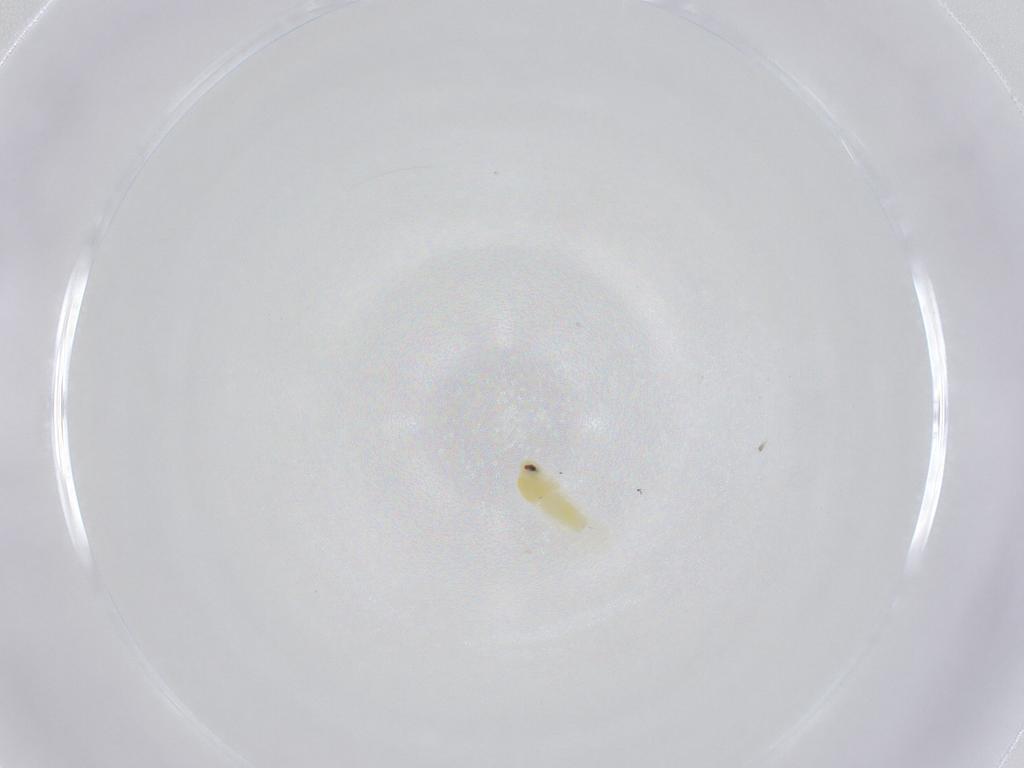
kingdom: Animalia
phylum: Arthropoda
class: Insecta
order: Hemiptera
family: Aleyrodidae
